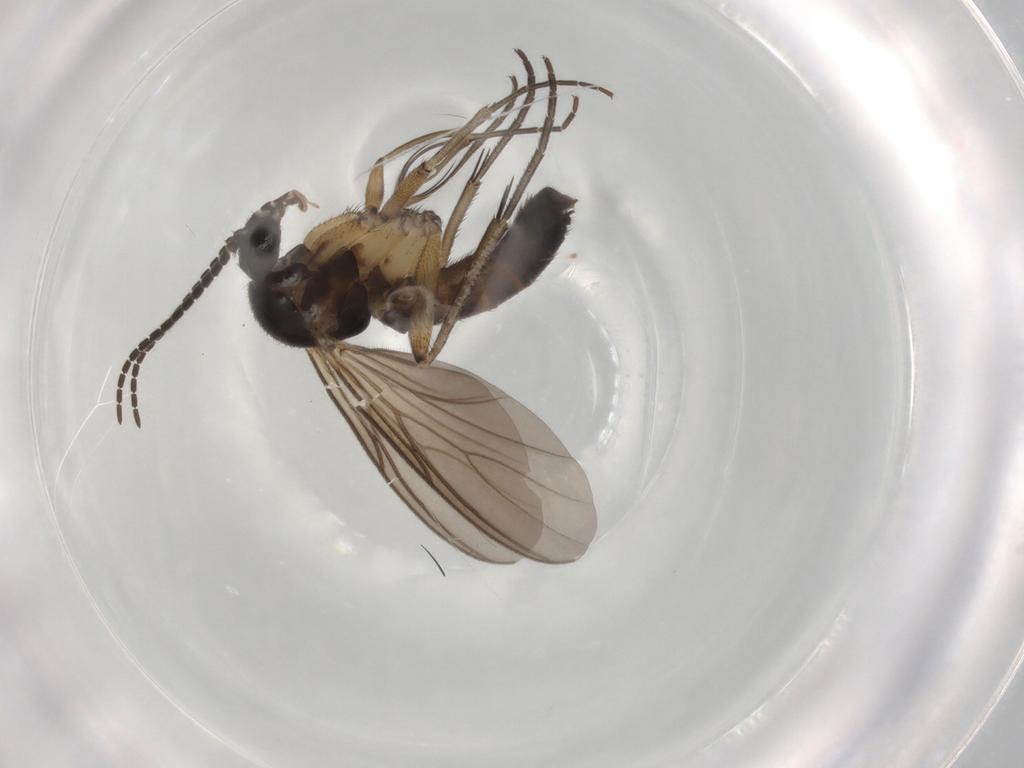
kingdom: Animalia
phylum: Arthropoda
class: Insecta
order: Diptera
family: Mycetophilidae
